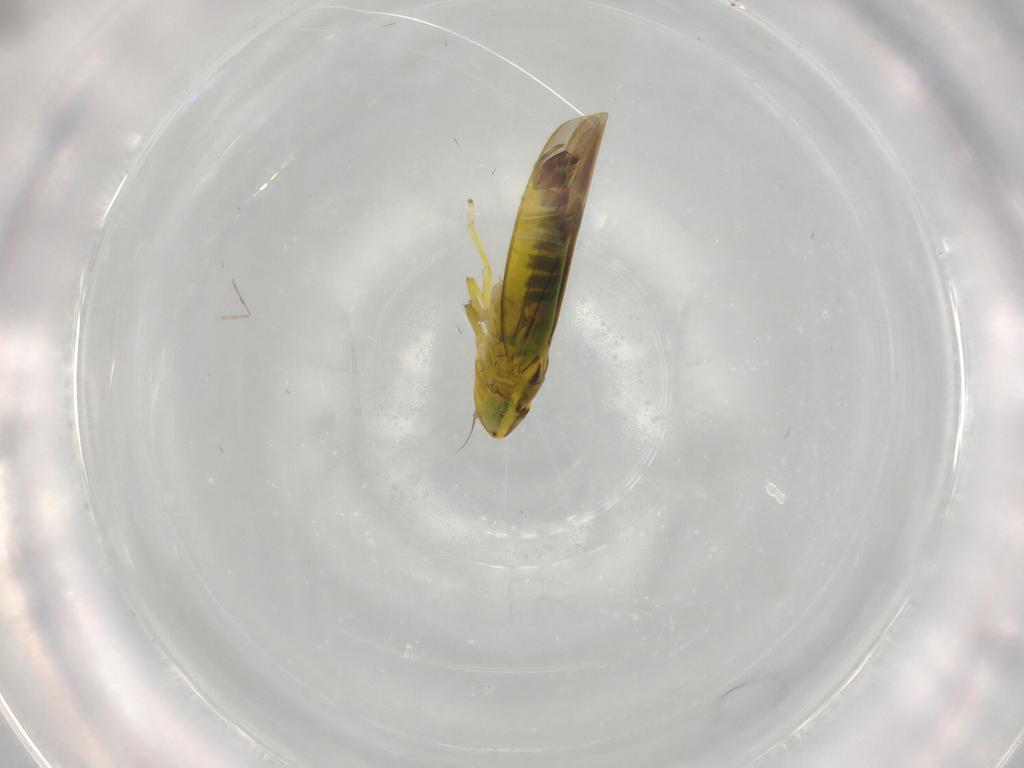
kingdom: Animalia
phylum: Arthropoda
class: Insecta
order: Hemiptera
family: Cicadellidae
